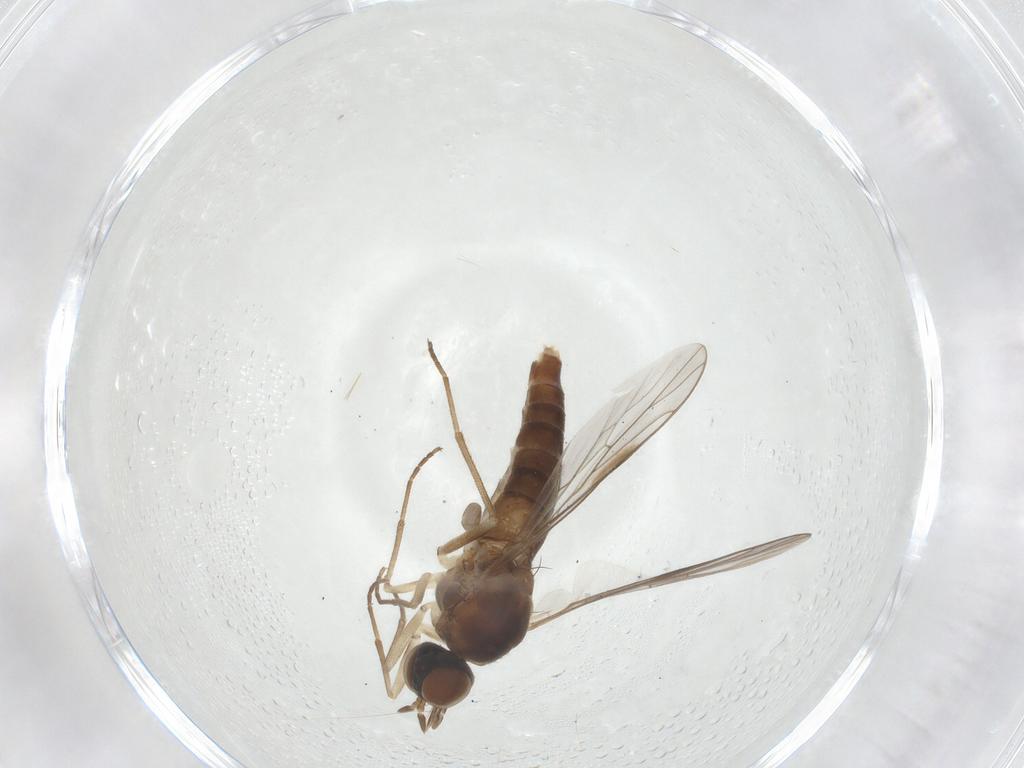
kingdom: Animalia
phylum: Arthropoda
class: Insecta
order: Diptera
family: Scenopinidae
